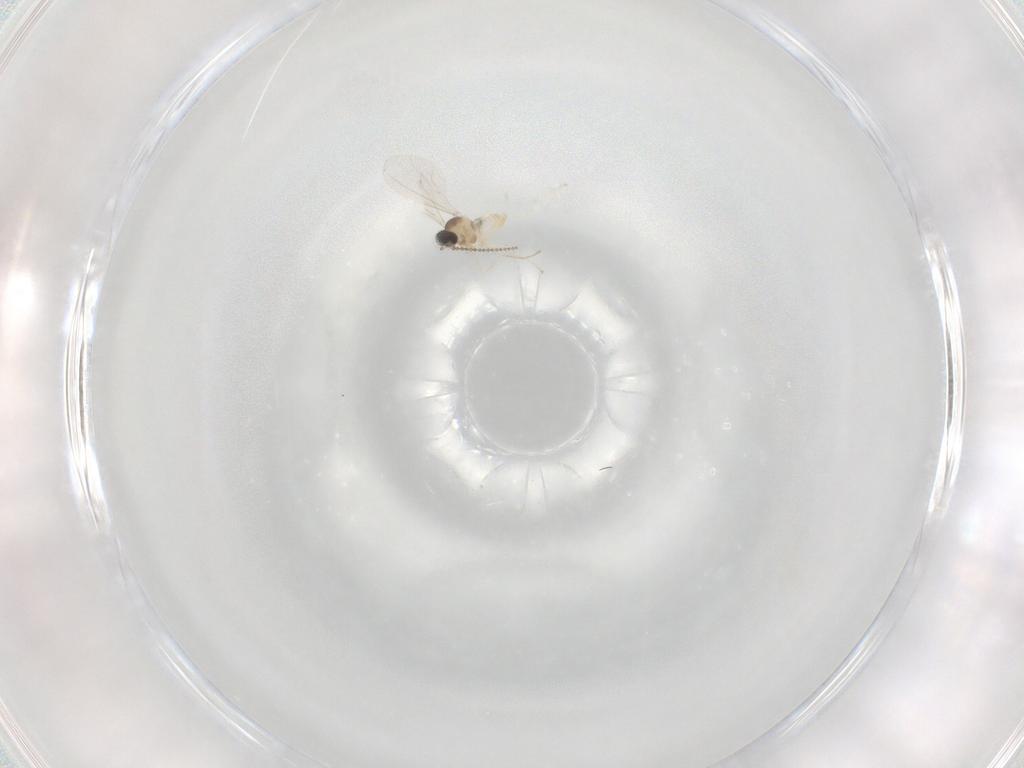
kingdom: Animalia
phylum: Arthropoda
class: Insecta
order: Diptera
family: Cecidomyiidae
